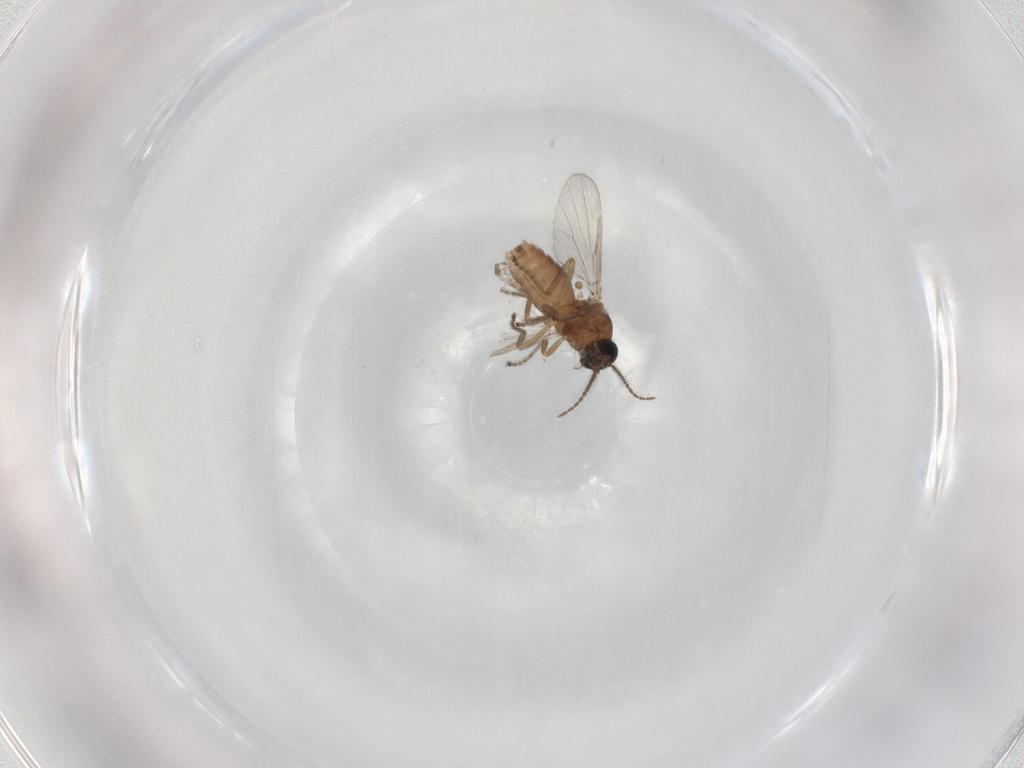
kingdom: Animalia
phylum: Arthropoda
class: Insecta
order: Diptera
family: Ceratopogonidae
